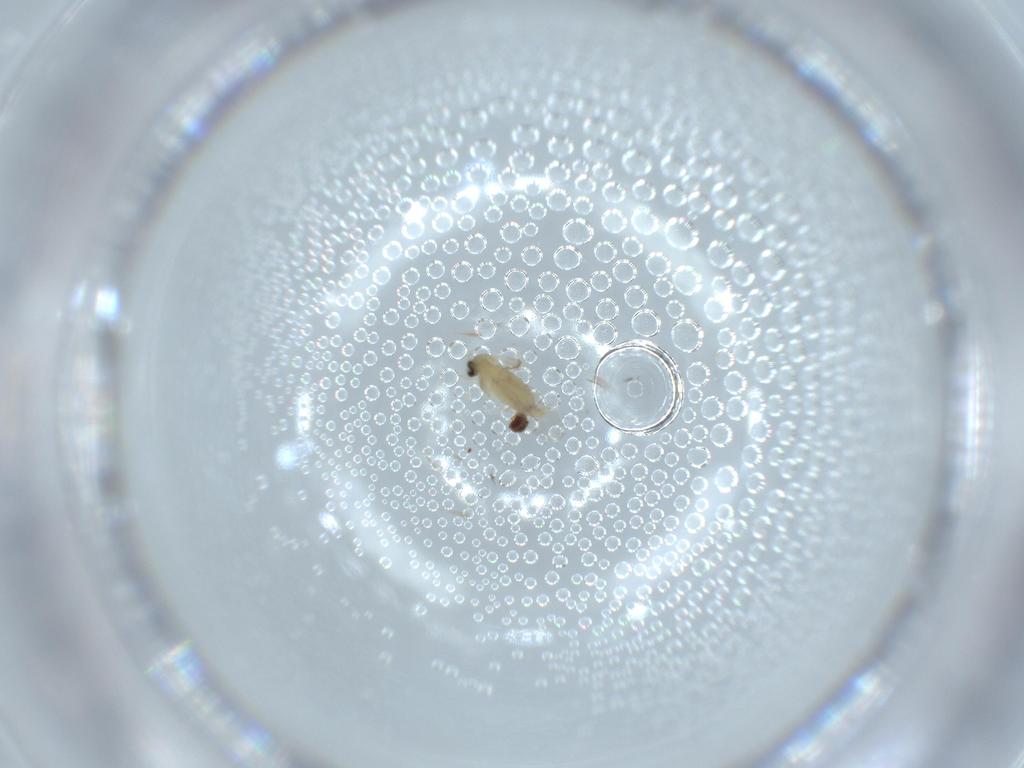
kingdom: Animalia
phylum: Arthropoda
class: Insecta
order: Diptera
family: Cecidomyiidae
